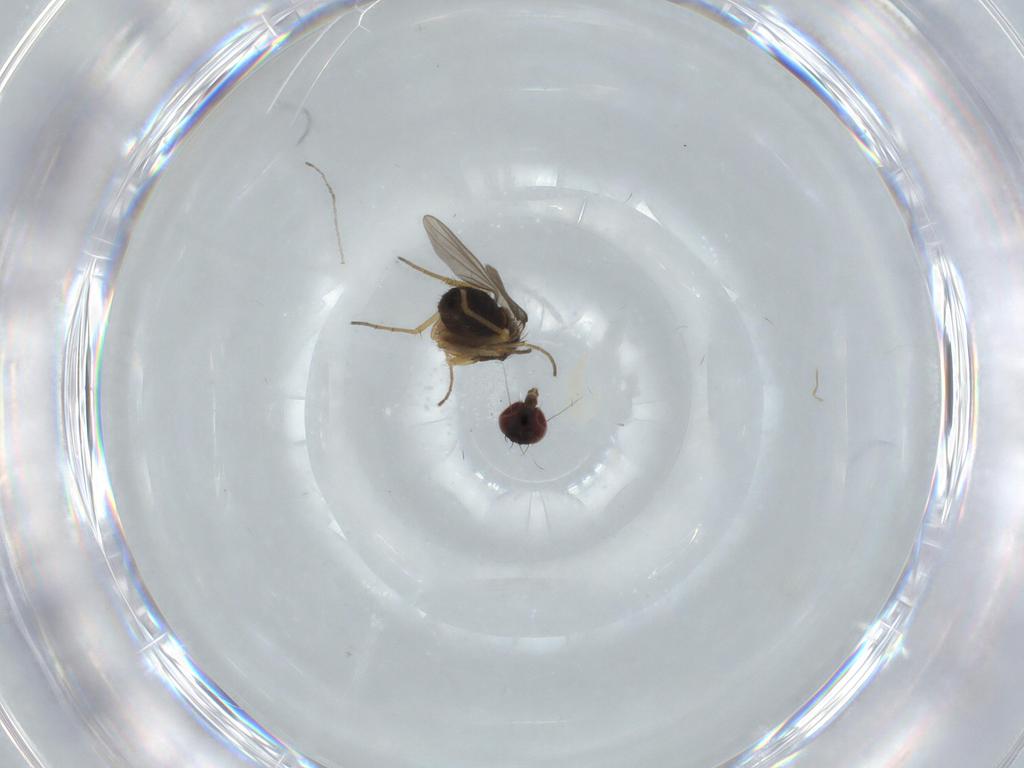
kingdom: Animalia
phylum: Arthropoda
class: Insecta
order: Diptera
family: Dolichopodidae
